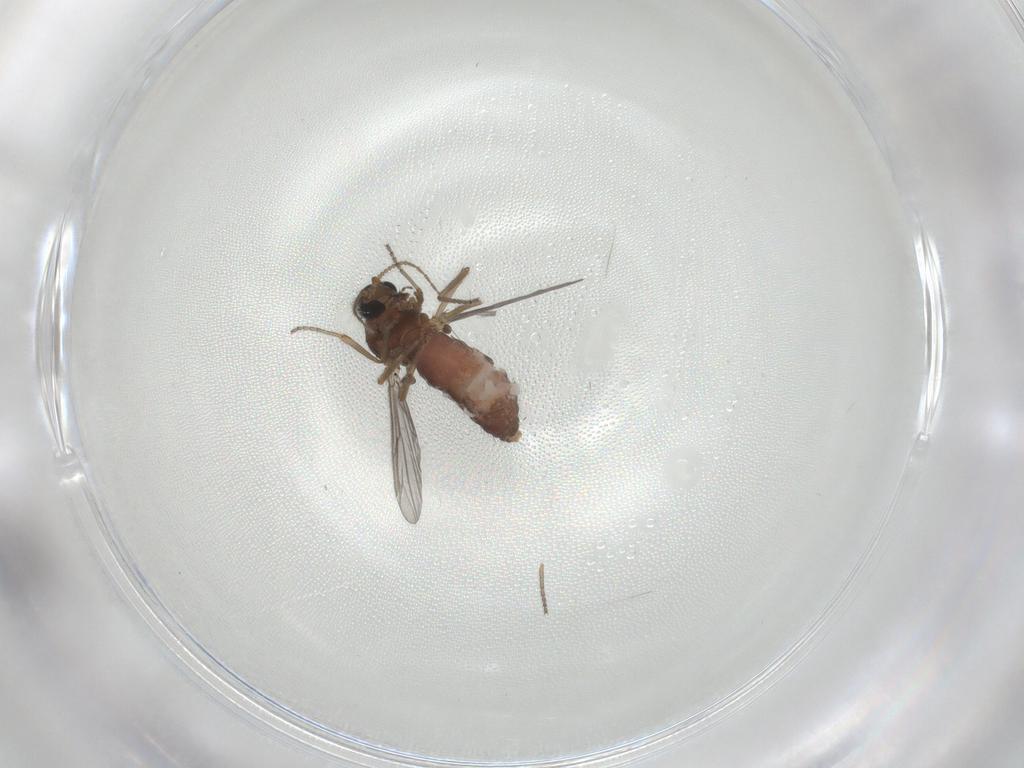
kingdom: Animalia
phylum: Arthropoda
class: Insecta
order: Diptera
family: Ceratopogonidae
